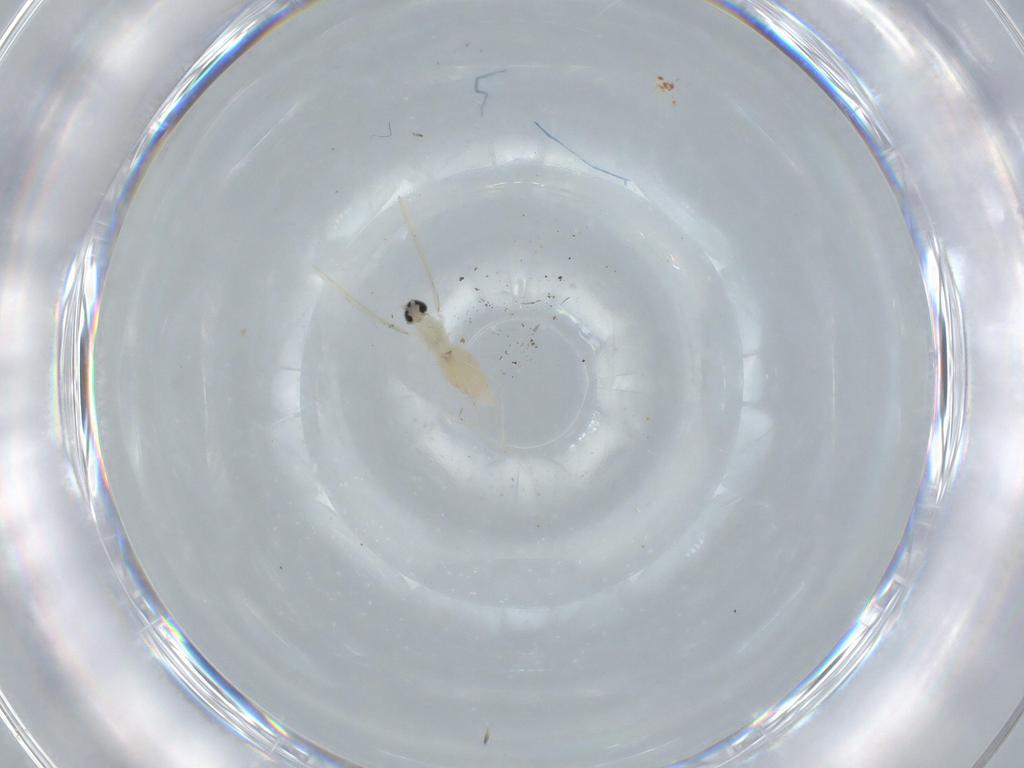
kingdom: Animalia
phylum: Arthropoda
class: Insecta
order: Diptera
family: Cecidomyiidae
